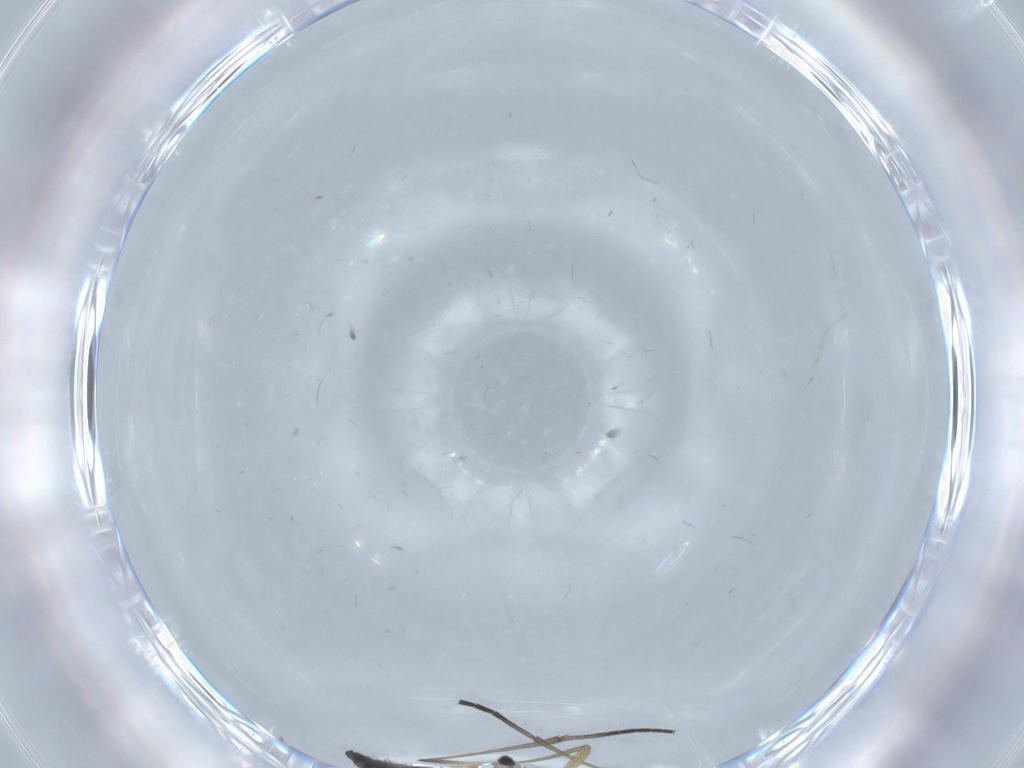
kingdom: Animalia
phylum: Arthropoda
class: Insecta
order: Diptera
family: Sciaridae
